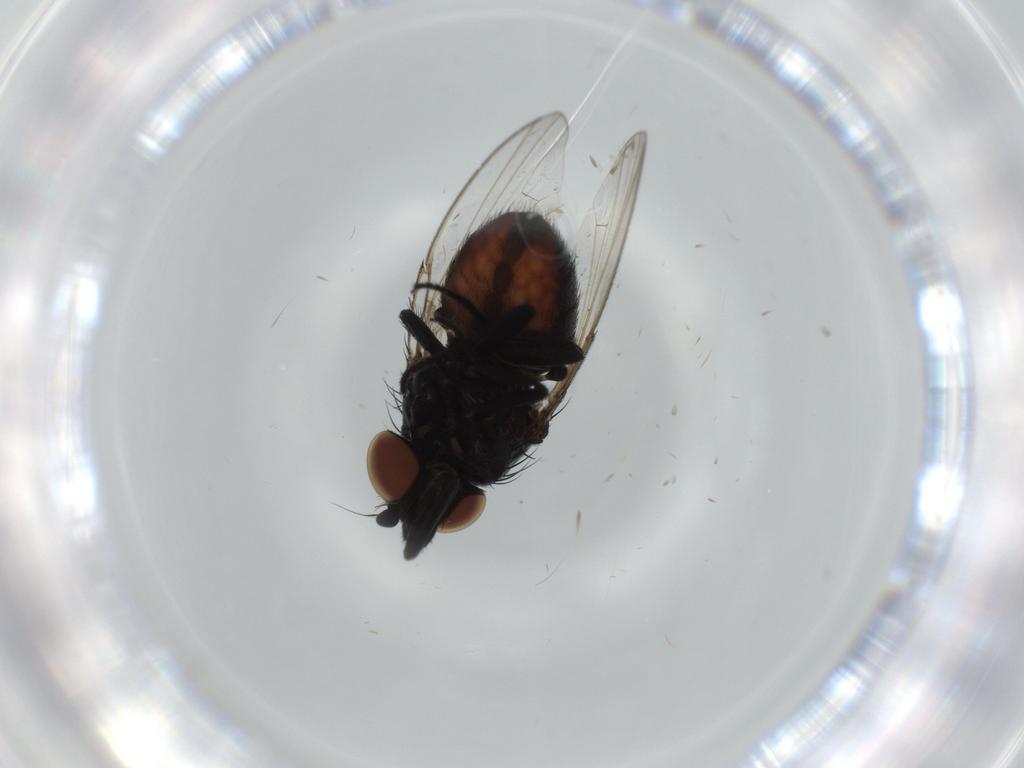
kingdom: Animalia
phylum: Arthropoda
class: Insecta
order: Diptera
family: Milichiidae
